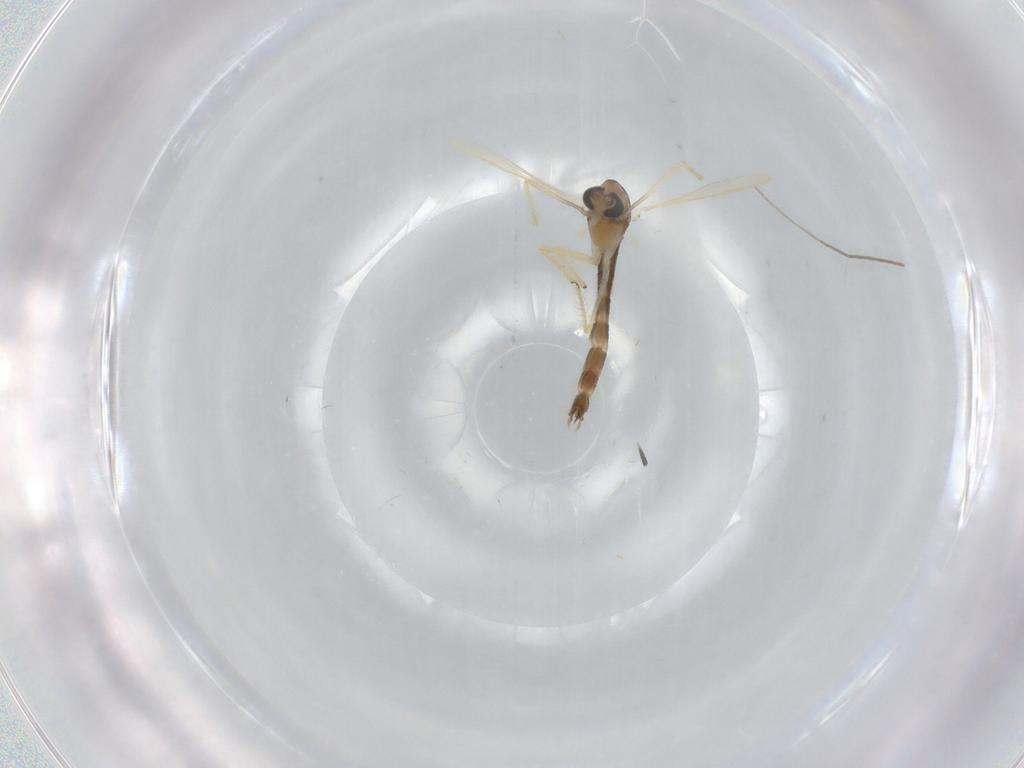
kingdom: Animalia
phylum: Arthropoda
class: Insecta
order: Diptera
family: Chironomidae
